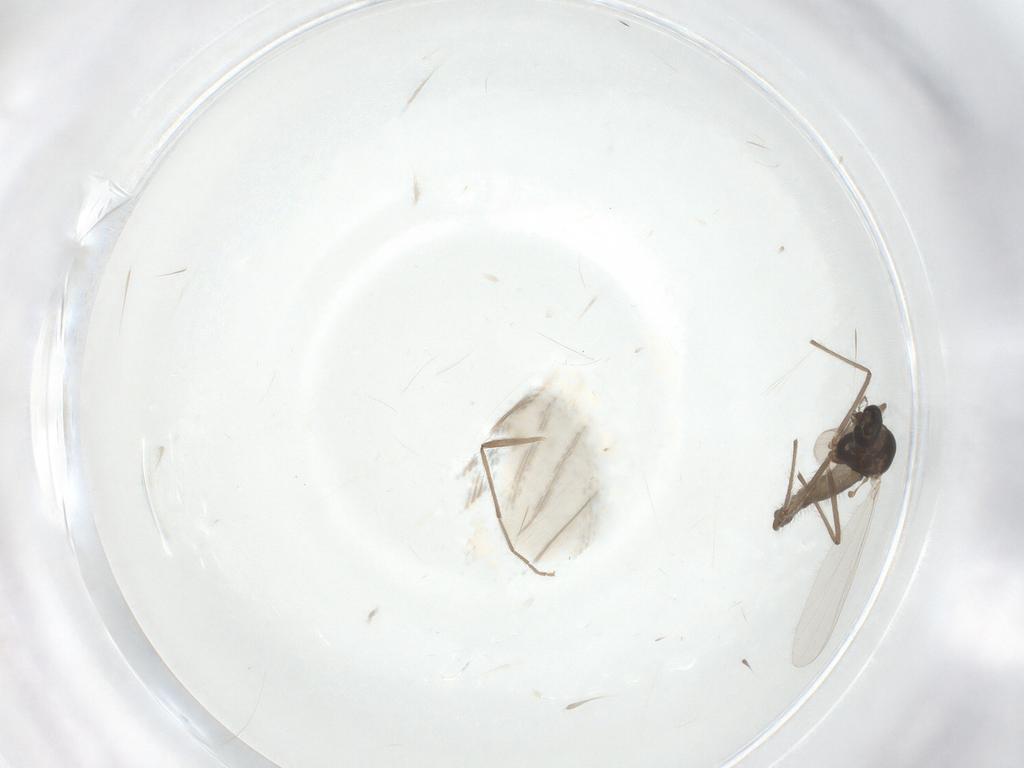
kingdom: Animalia
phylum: Arthropoda
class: Insecta
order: Diptera
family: Chironomidae
